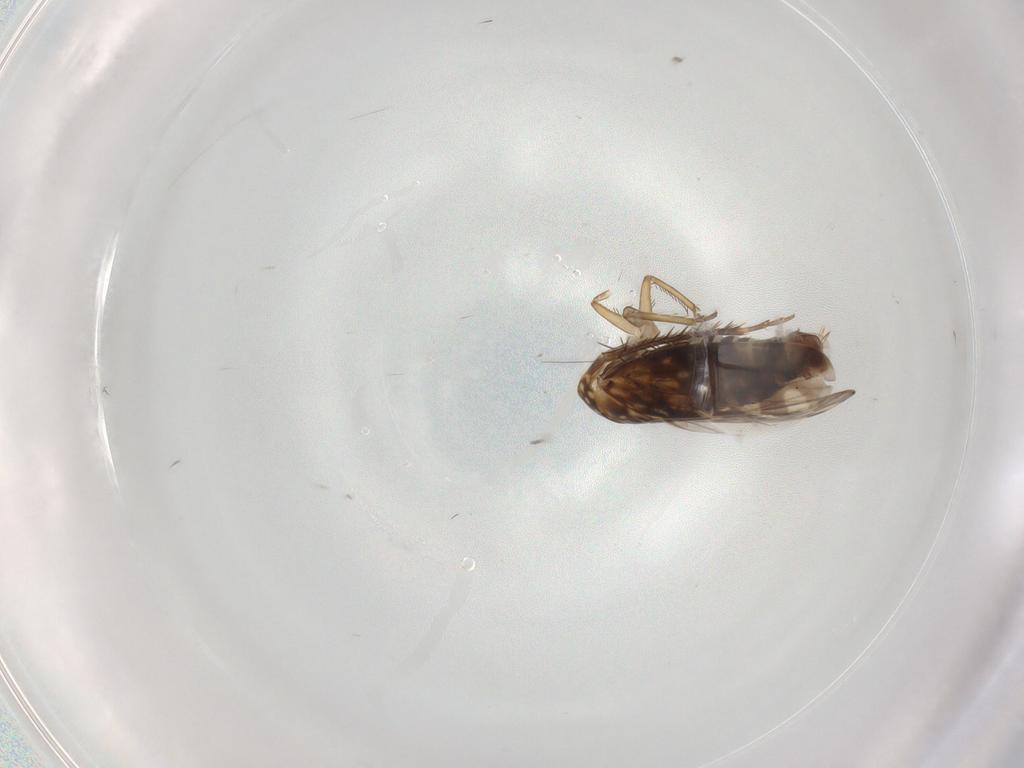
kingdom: Animalia
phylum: Arthropoda
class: Insecta
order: Hemiptera
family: Cicadellidae
